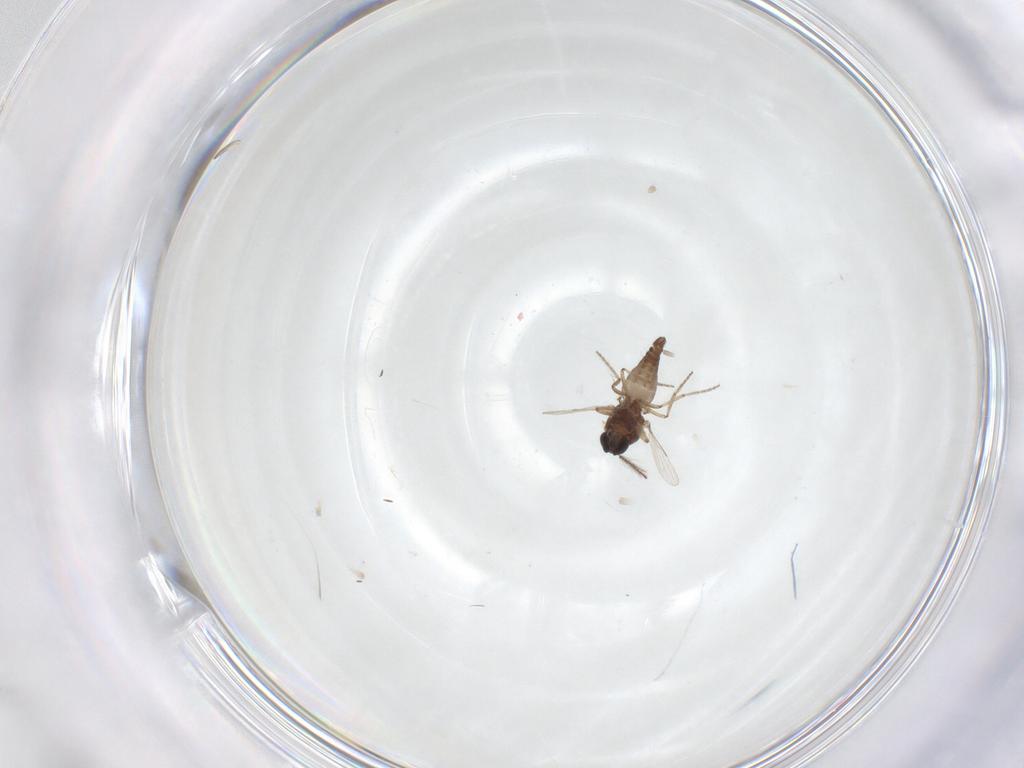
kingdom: Animalia
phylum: Arthropoda
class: Insecta
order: Diptera
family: Ceratopogonidae
